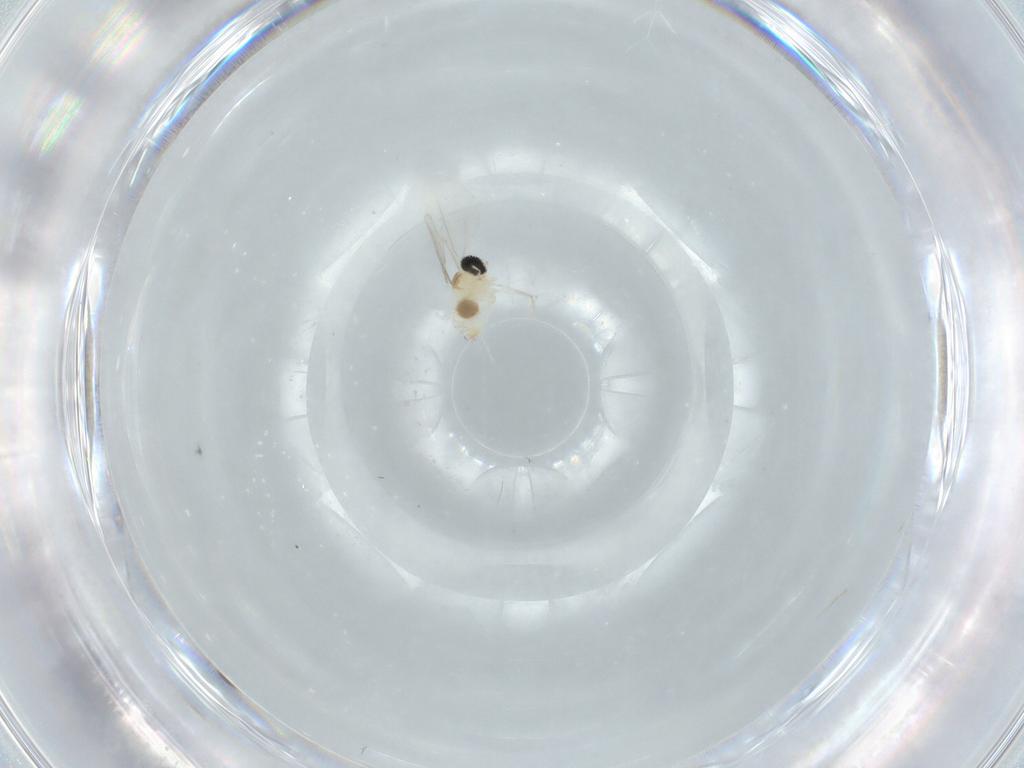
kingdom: Animalia
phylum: Arthropoda
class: Insecta
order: Diptera
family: Cecidomyiidae
